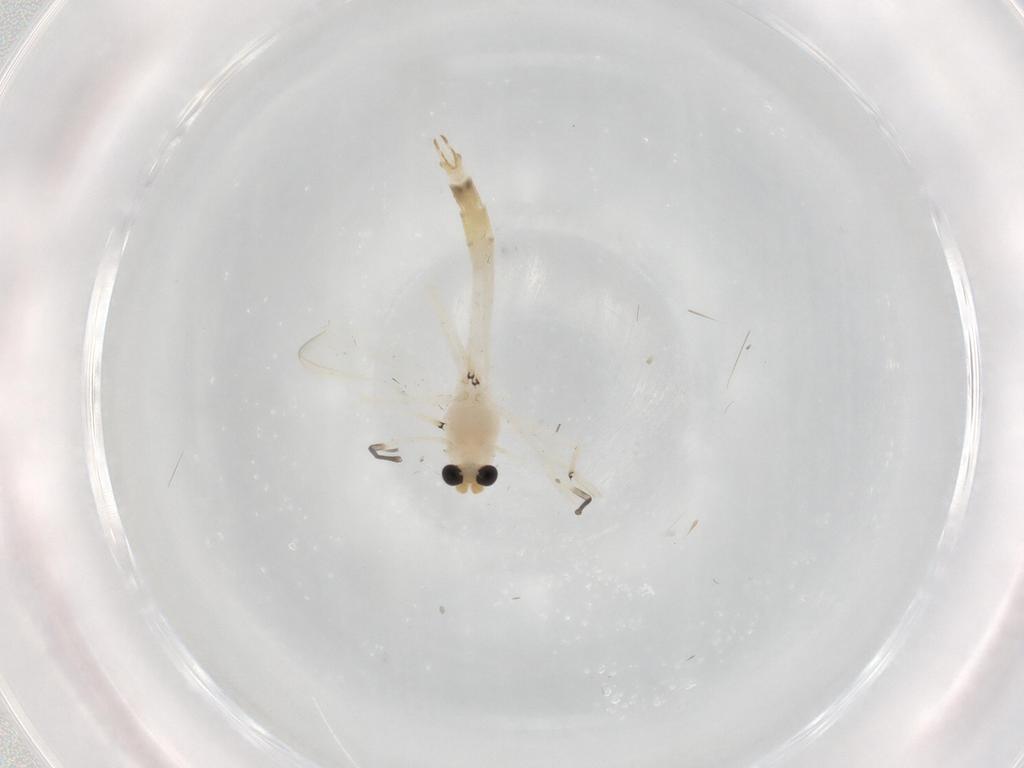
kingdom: Animalia
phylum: Arthropoda
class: Insecta
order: Diptera
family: Chironomidae
